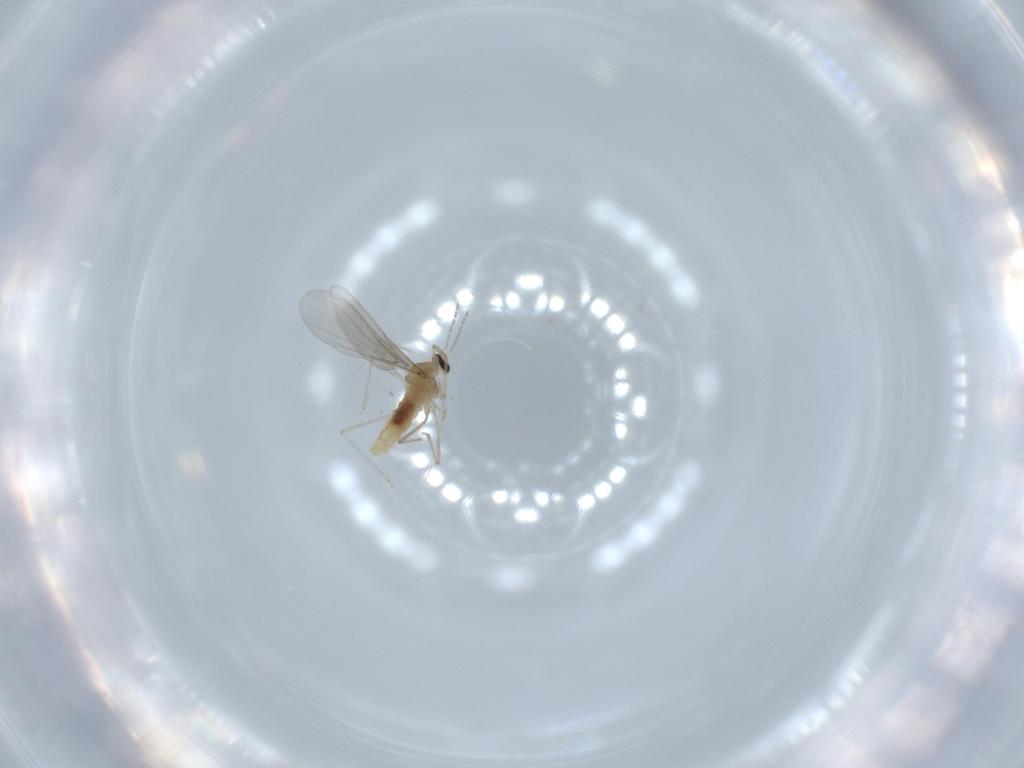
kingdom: Animalia
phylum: Arthropoda
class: Insecta
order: Diptera
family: Cecidomyiidae
